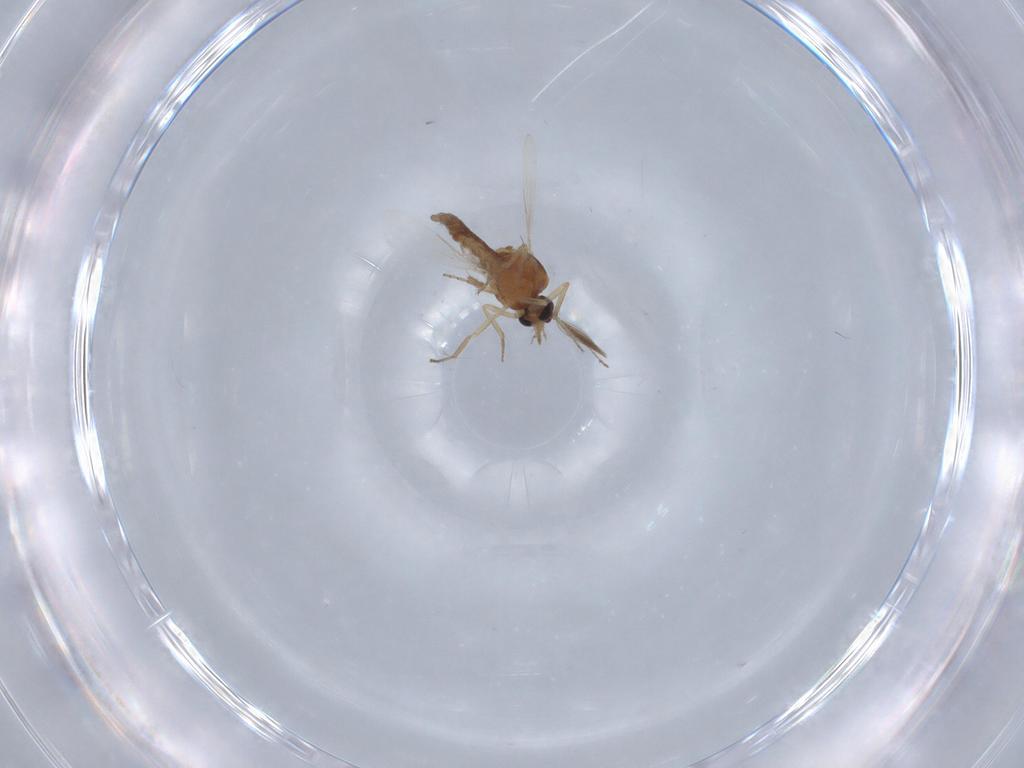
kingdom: Animalia
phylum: Arthropoda
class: Insecta
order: Diptera
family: Ceratopogonidae
